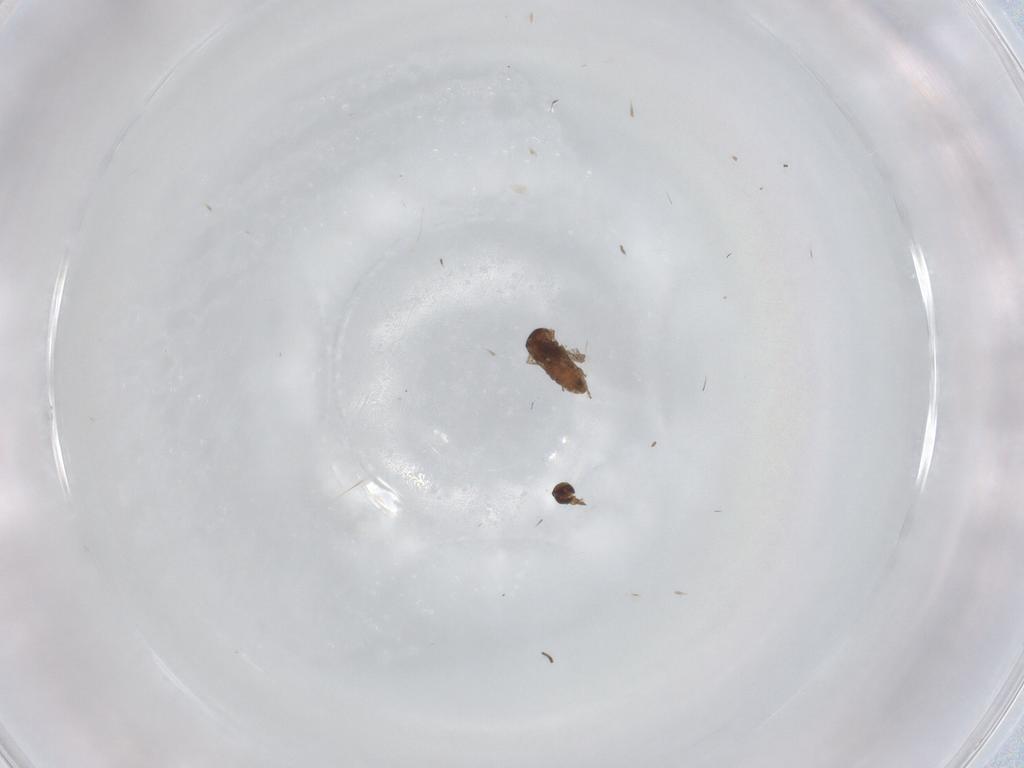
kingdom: Animalia
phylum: Arthropoda
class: Insecta
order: Diptera
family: Ceratopogonidae
